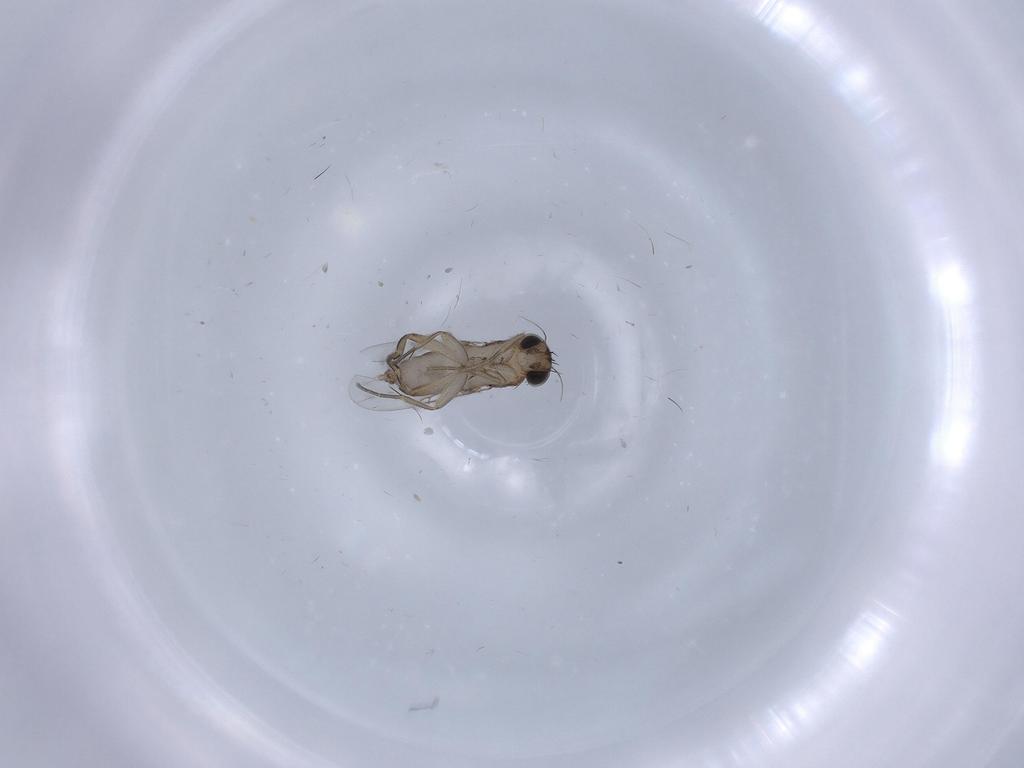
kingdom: Animalia
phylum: Arthropoda
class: Insecta
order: Diptera
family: Phoridae
